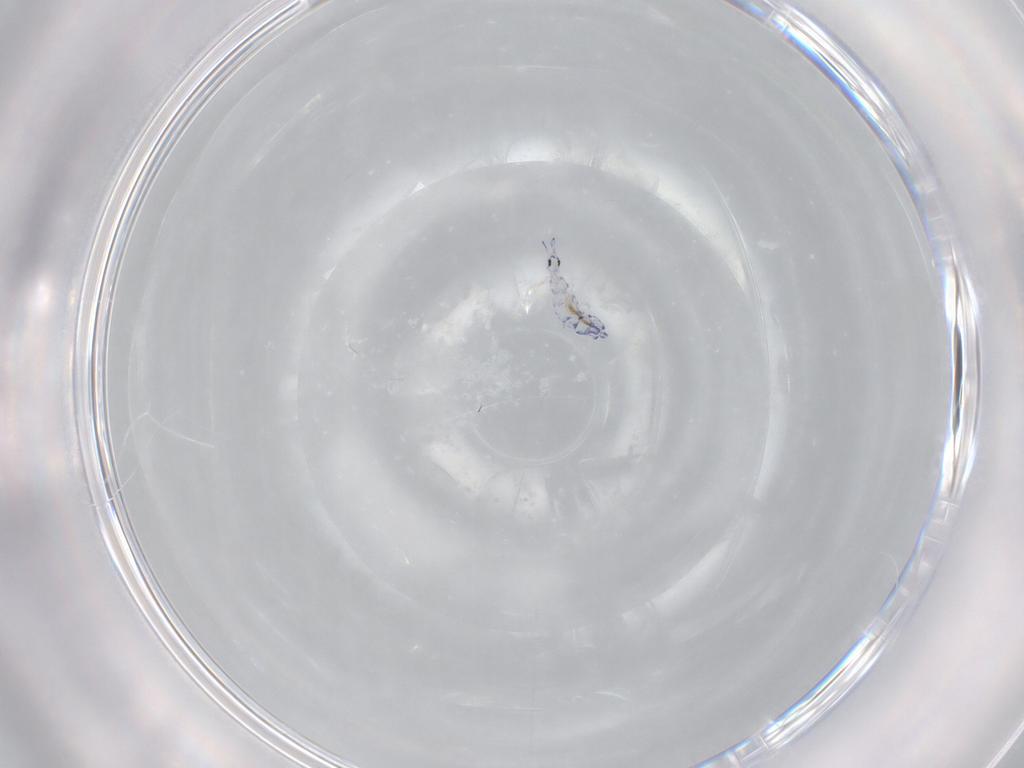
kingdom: Animalia
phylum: Arthropoda
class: Collembola
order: Entomobryomorpha
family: Entomobryidae
